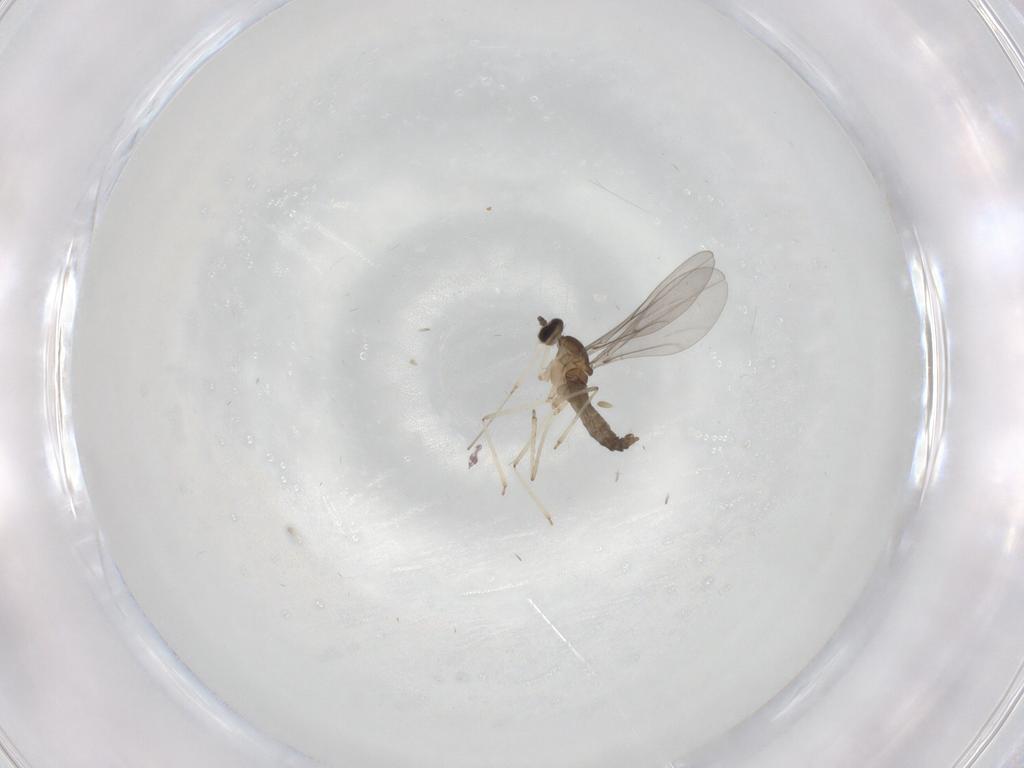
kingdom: Animalia
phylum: Arthropoda
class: Insecta
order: Diptera
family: Cecidomyiidae
